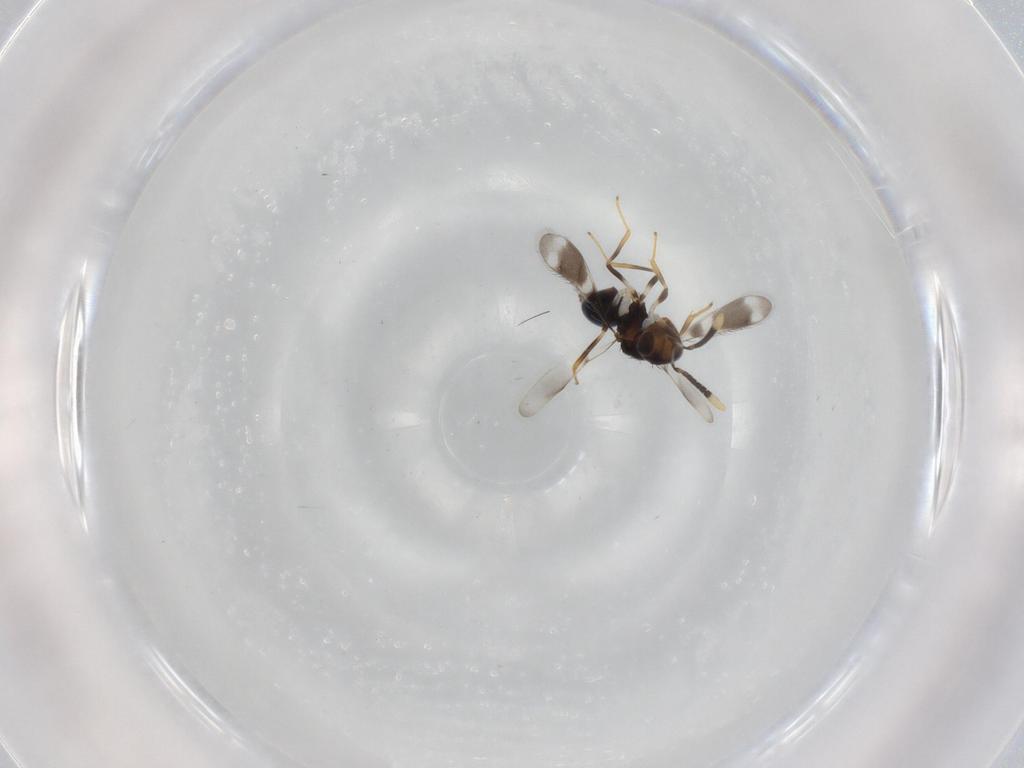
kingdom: Animalia
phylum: Arthropoda
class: Insecta
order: Hymenoptera
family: Diparidae
